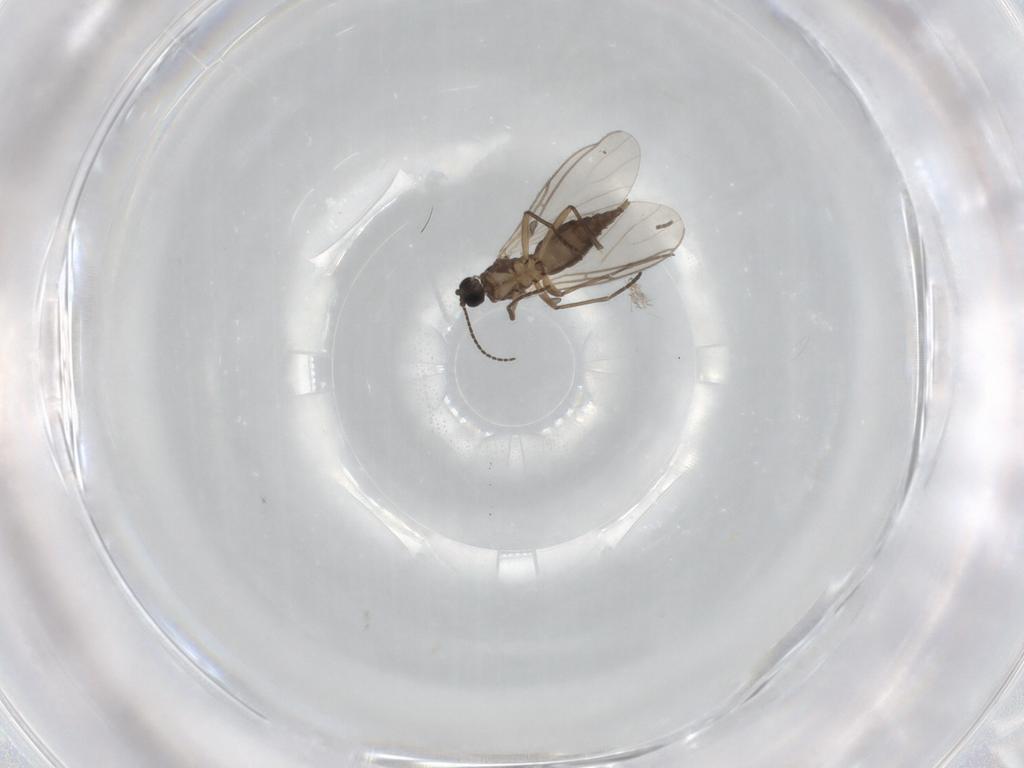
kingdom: Animalia
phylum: Arthropoda
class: Insecta
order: Diptera
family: Sciaridae
